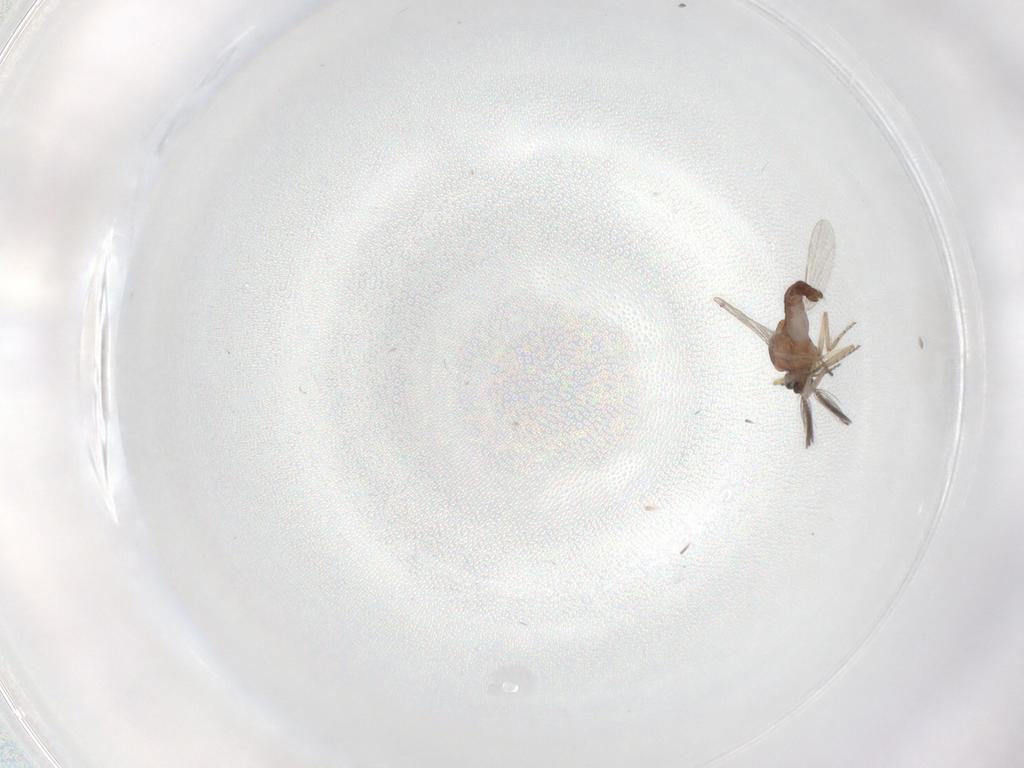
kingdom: Animalia
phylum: Arthropoda
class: Insecta
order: Diptera
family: Ceratopogonidae
